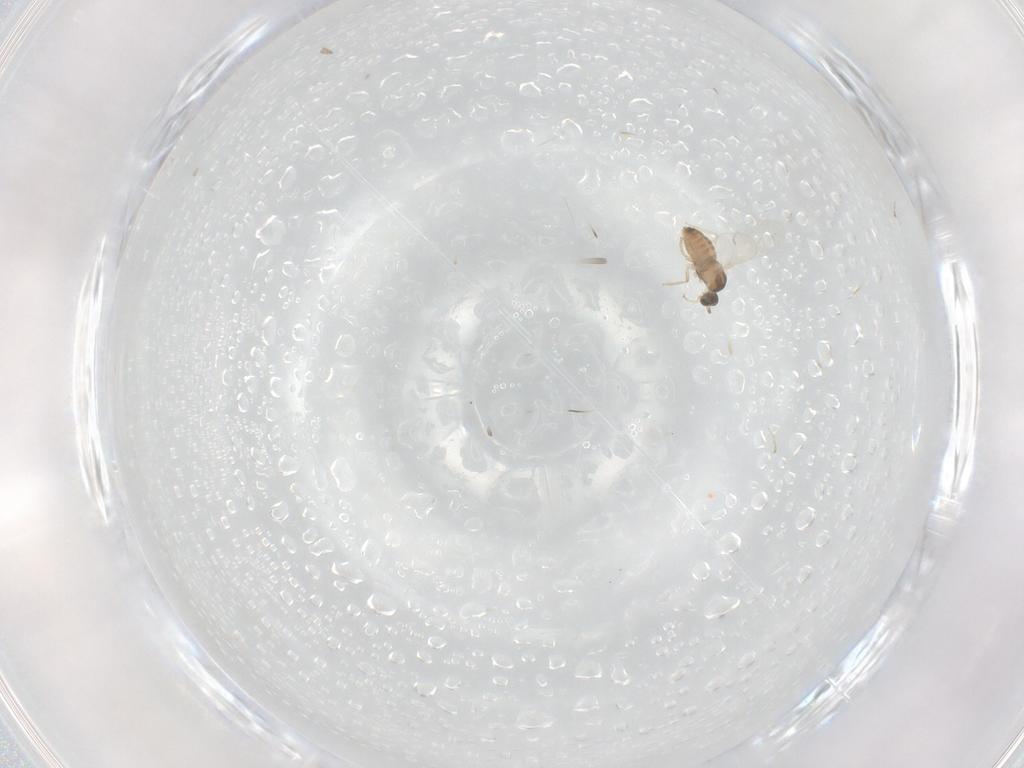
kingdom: Animalia
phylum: Arthropoda
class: Insecta
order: Diptera
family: Cecidomyiidae
